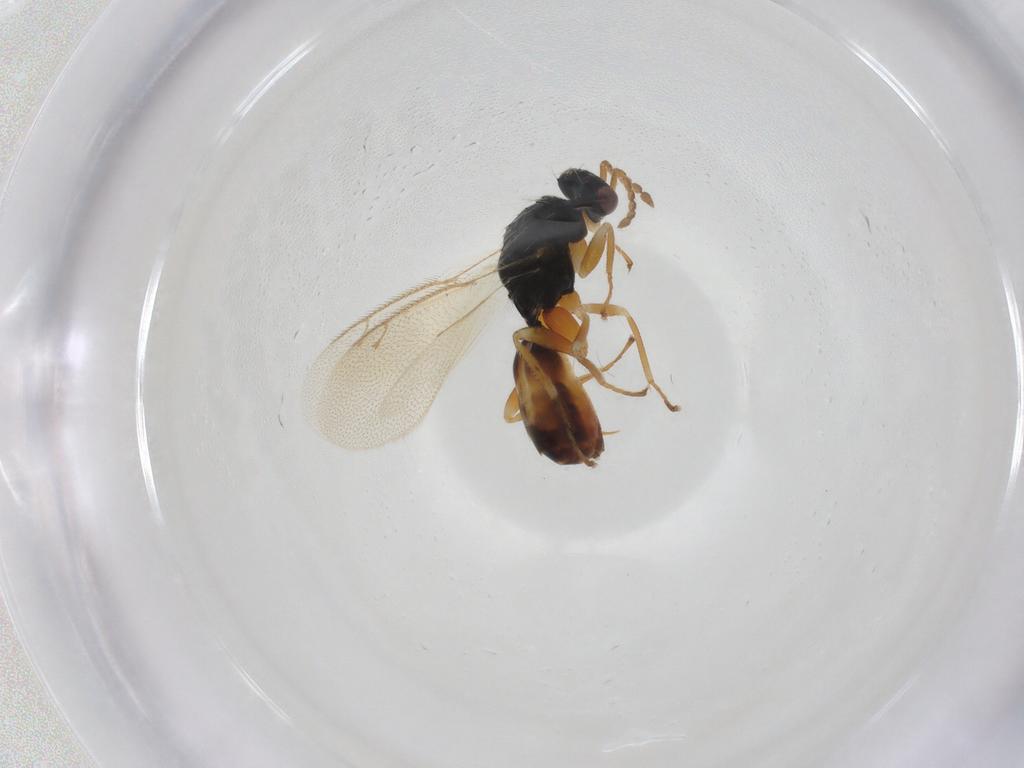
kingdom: Animalia
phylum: Arthropoda
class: Insecta
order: Hymenoptera
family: Eulophidae
